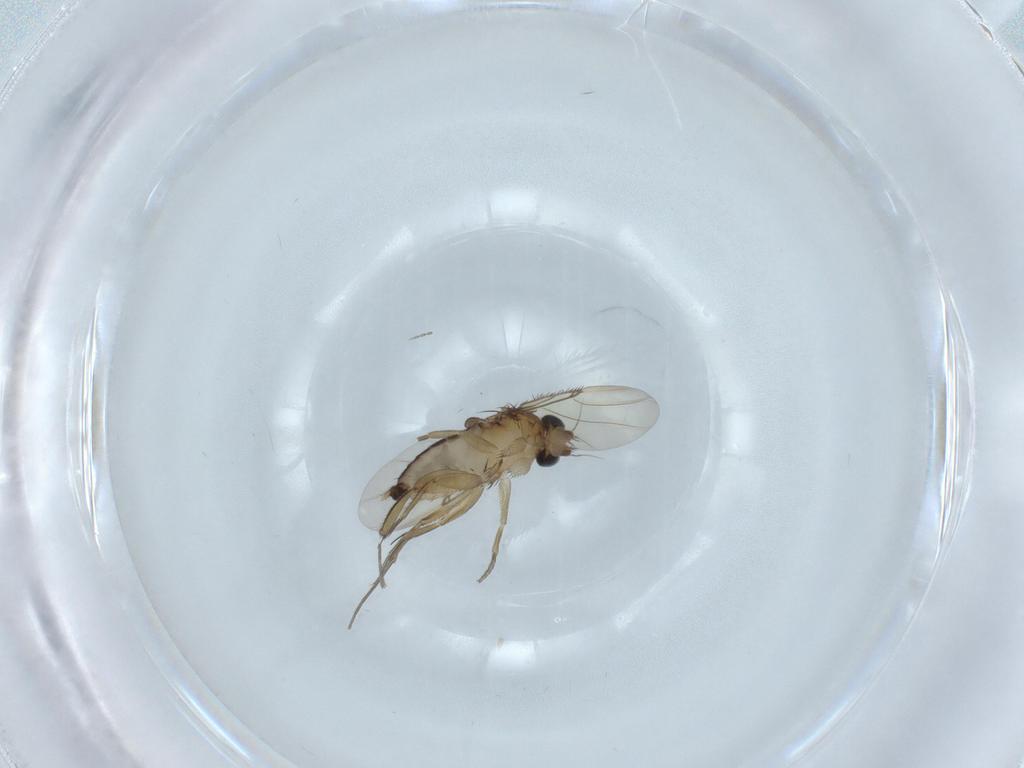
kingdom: Animalia
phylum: Arthropoda
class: Insecta
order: Diptera
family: Phoridae
